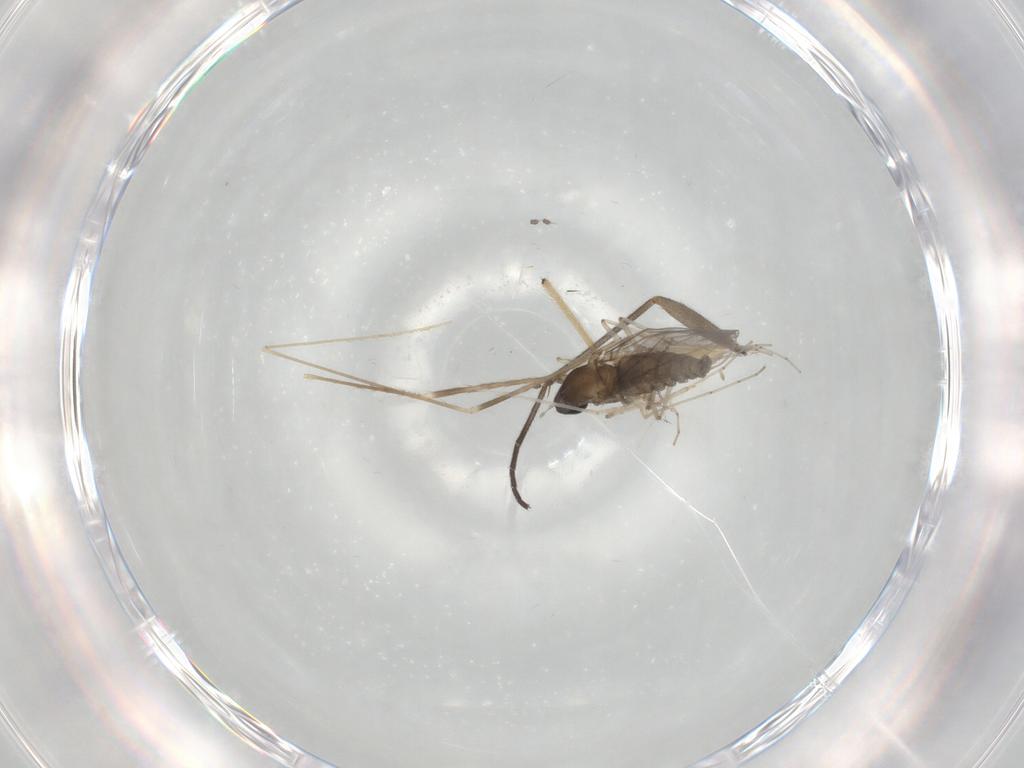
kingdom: Animalia
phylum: Arthropoda
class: Insecta
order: Diptera
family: Sciaridae
